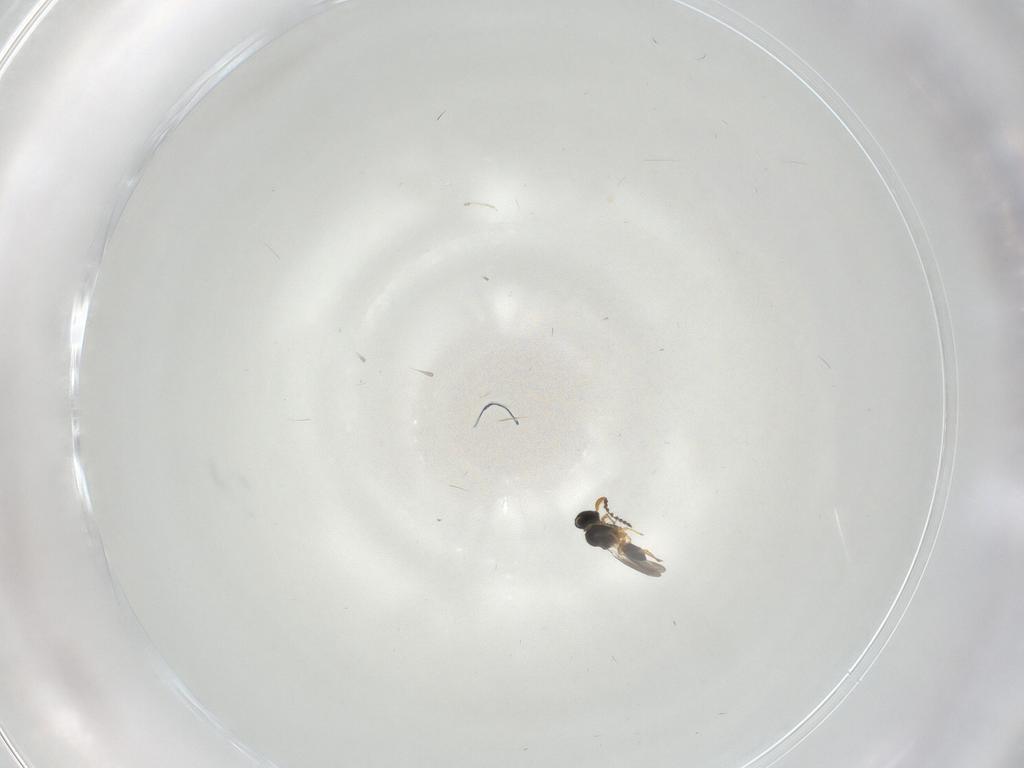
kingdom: Animalia
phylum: Arthropoda
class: Insecta
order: Hymenoptera
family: Platygastridae
